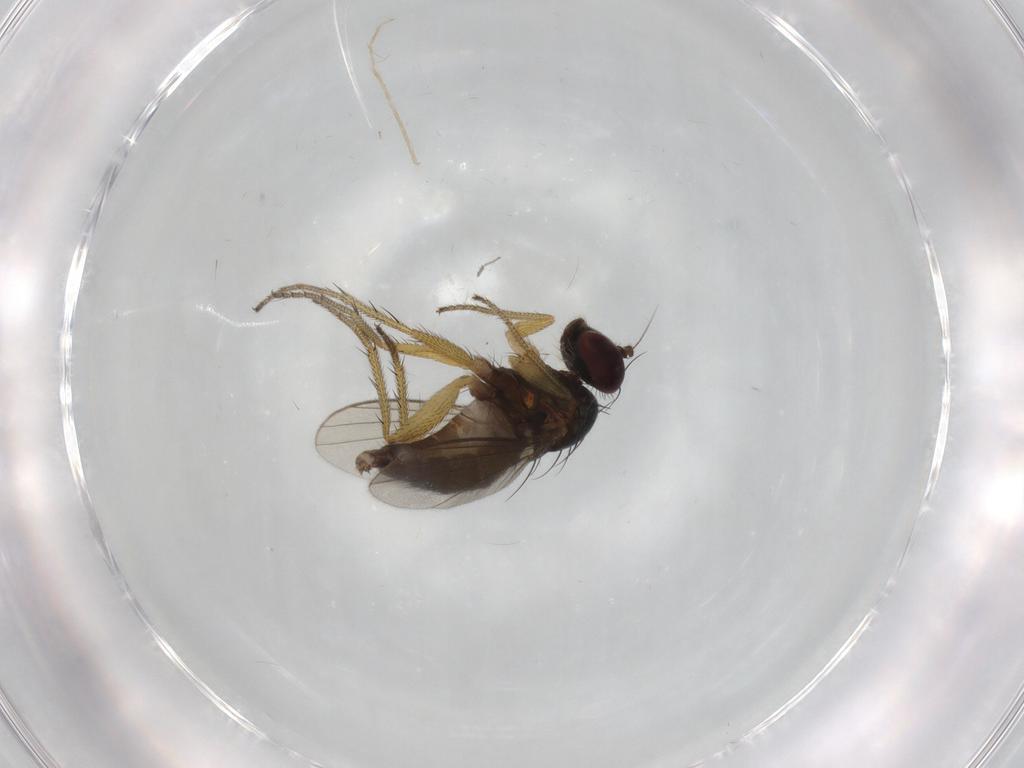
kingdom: Animalia
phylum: Arthropoda
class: Insecta
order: Diptera
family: Chironomidae
